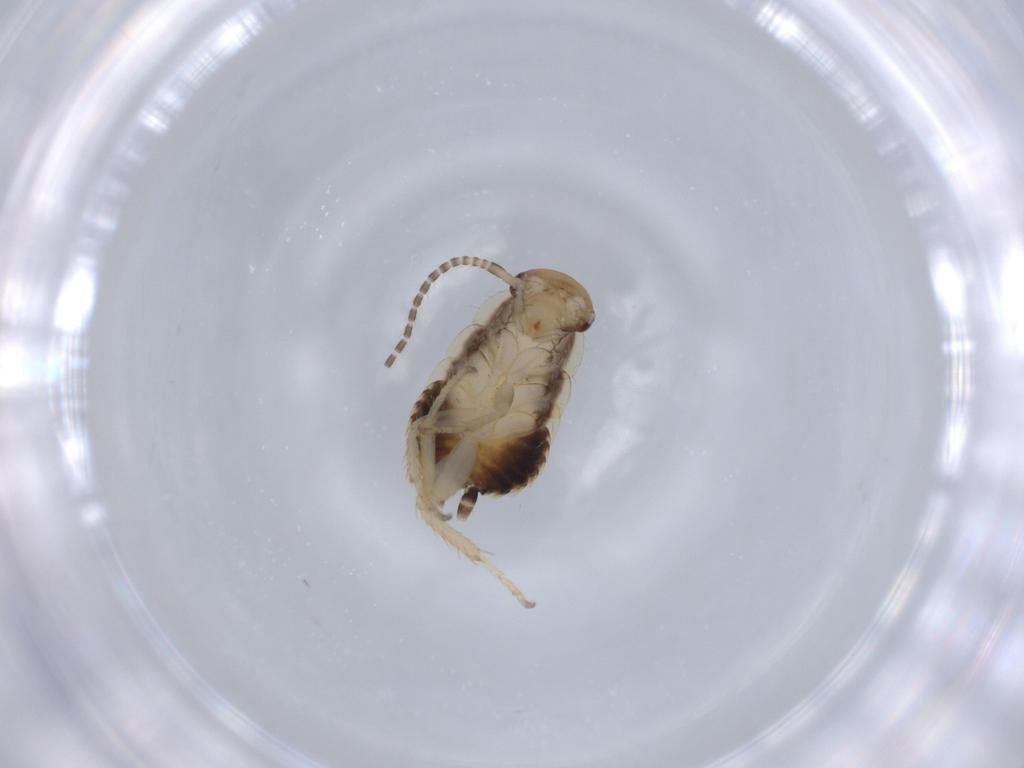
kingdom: Animalia
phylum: Arthropoda
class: Insecta
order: Blattodea
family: Ectobiidae
